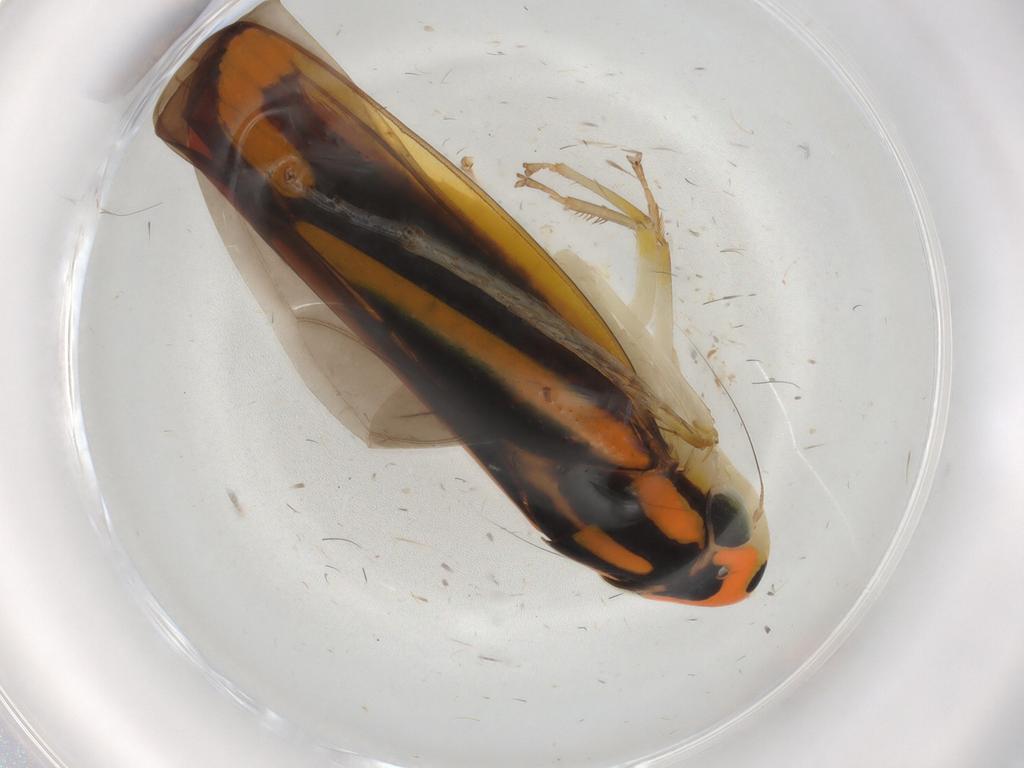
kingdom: Animalia
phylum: Arthropoda
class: Insecta
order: Hemiptera
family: Cicadellidae
